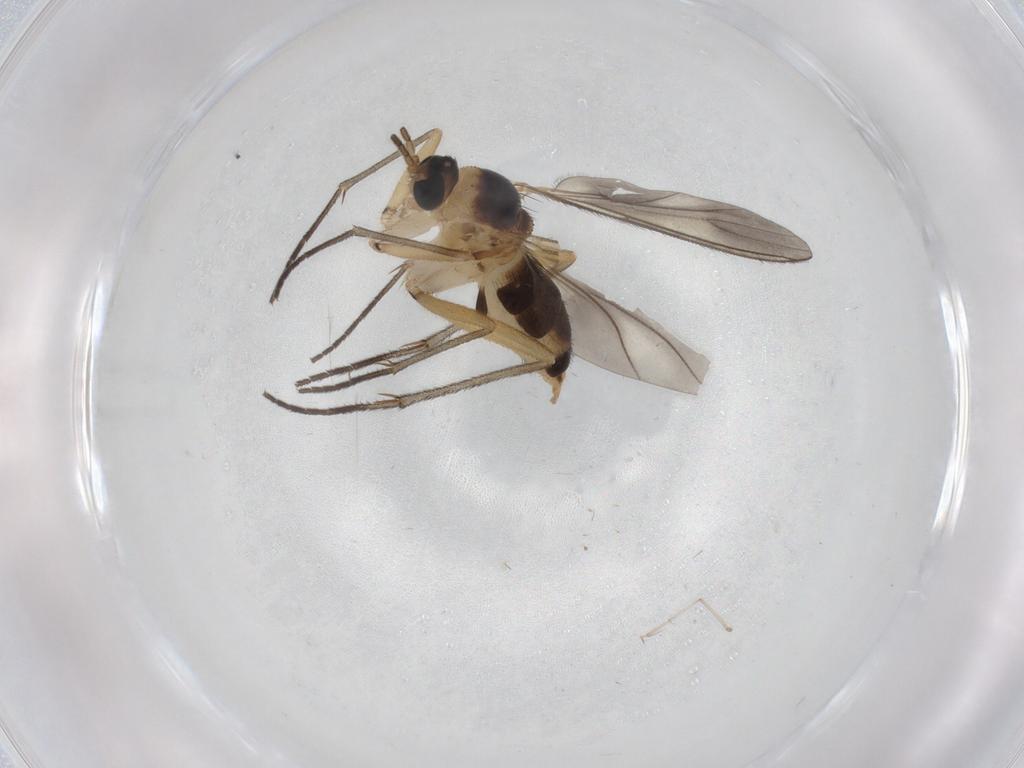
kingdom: Animalia
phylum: Arthropoda
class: Insecta
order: Diptera
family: Sciaridae
